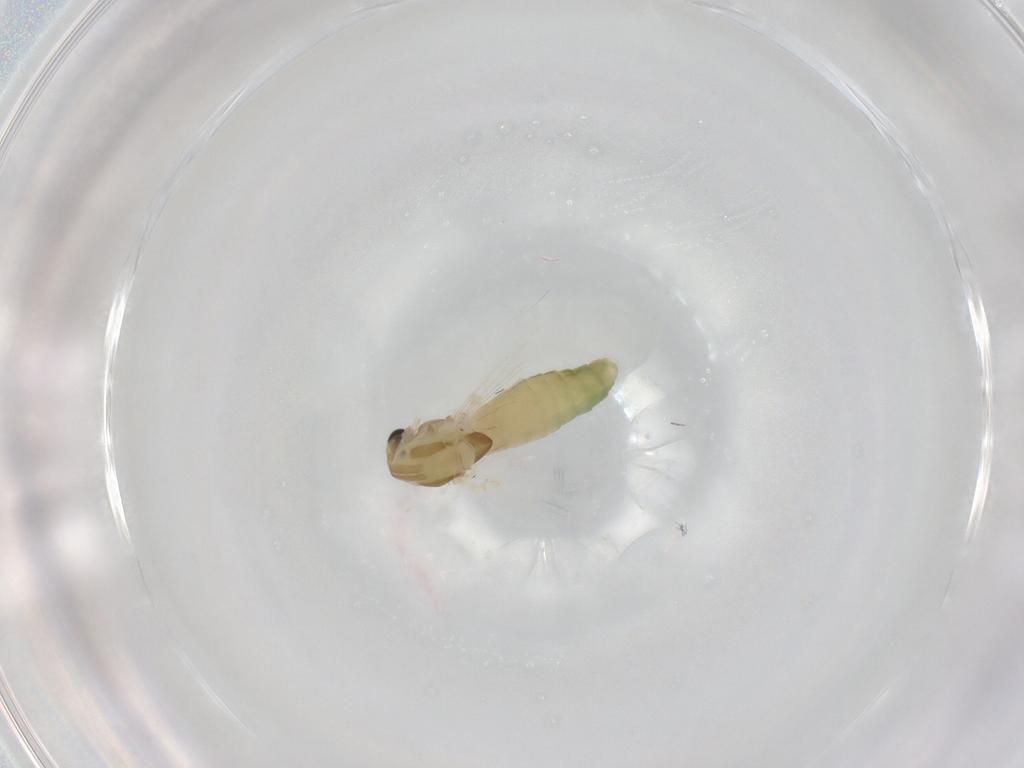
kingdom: Animalia
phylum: Arthropoda
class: Insecta
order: Diptera
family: Chironomidae
